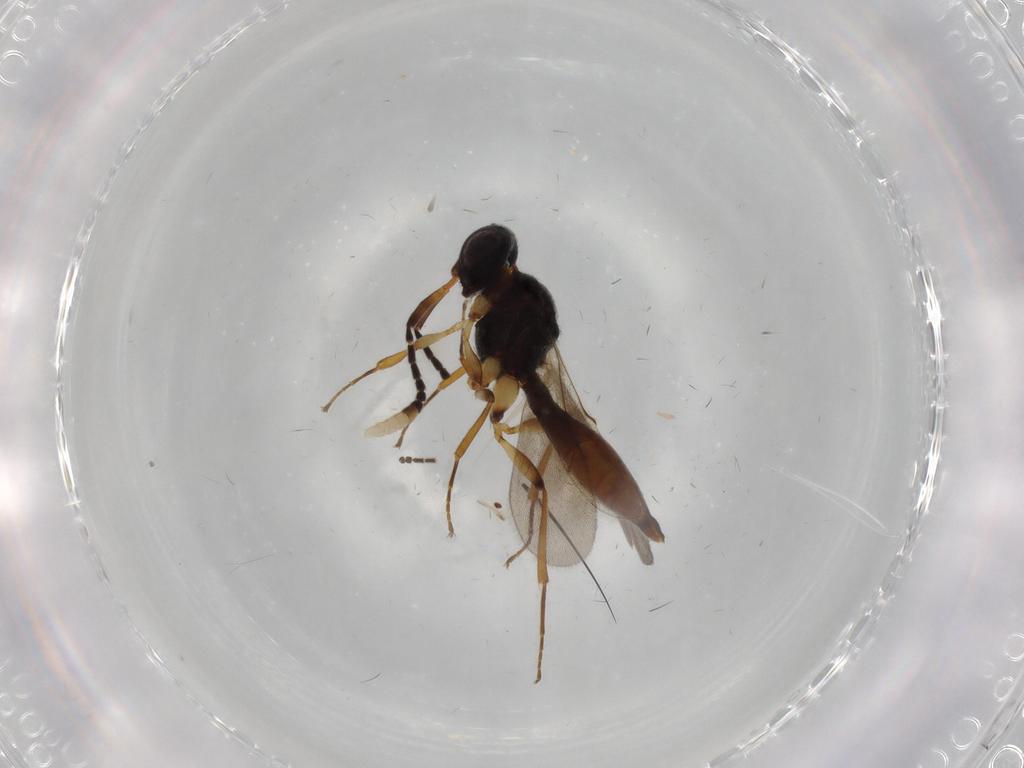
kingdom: Animalia
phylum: Arthropoda
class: Insecta
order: Hymenoptera
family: Scelionidae
